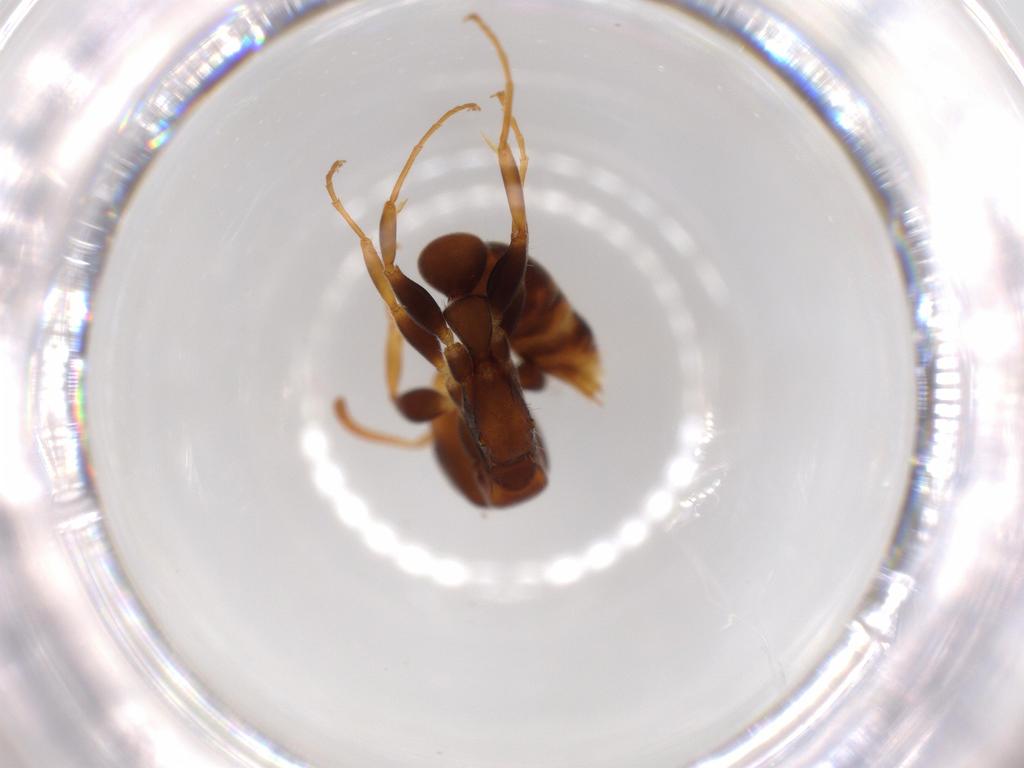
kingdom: Animalia
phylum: Arthropoda
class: Insecta
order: Hymenoptera
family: Formicidae
